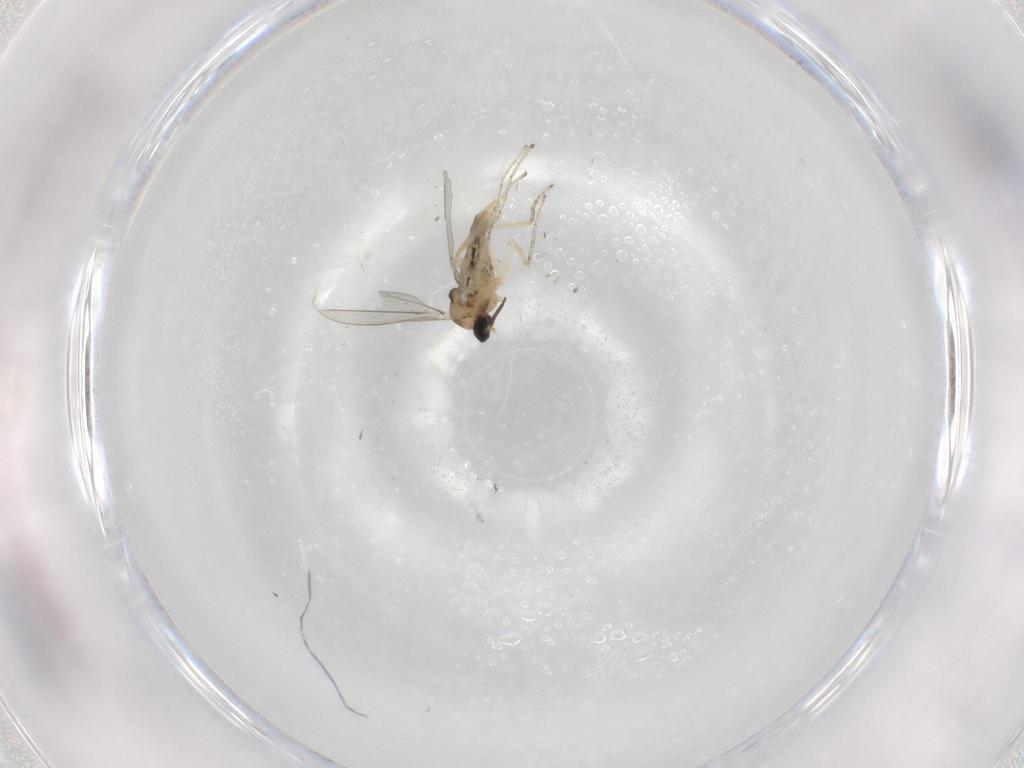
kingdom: Animalia
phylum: Arthropoda
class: Insecta
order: Diptera
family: Cecidomyiidae
